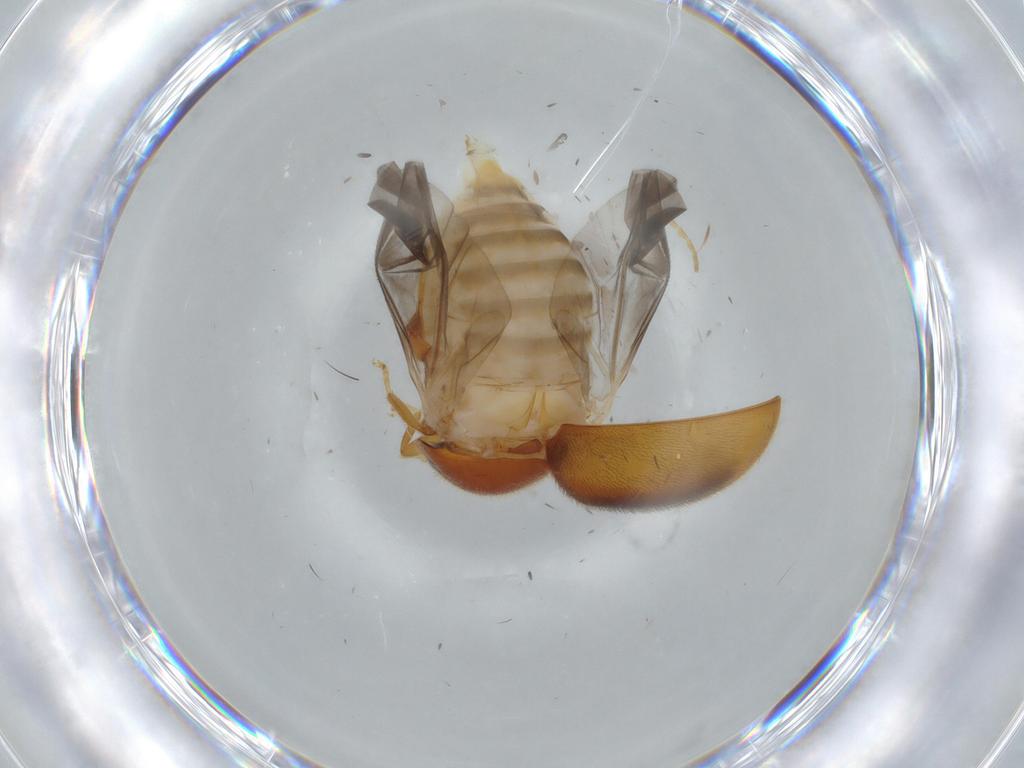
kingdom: Animalia
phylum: Arthropoda
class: Insecta
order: Coleoptera
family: Scirtidae
